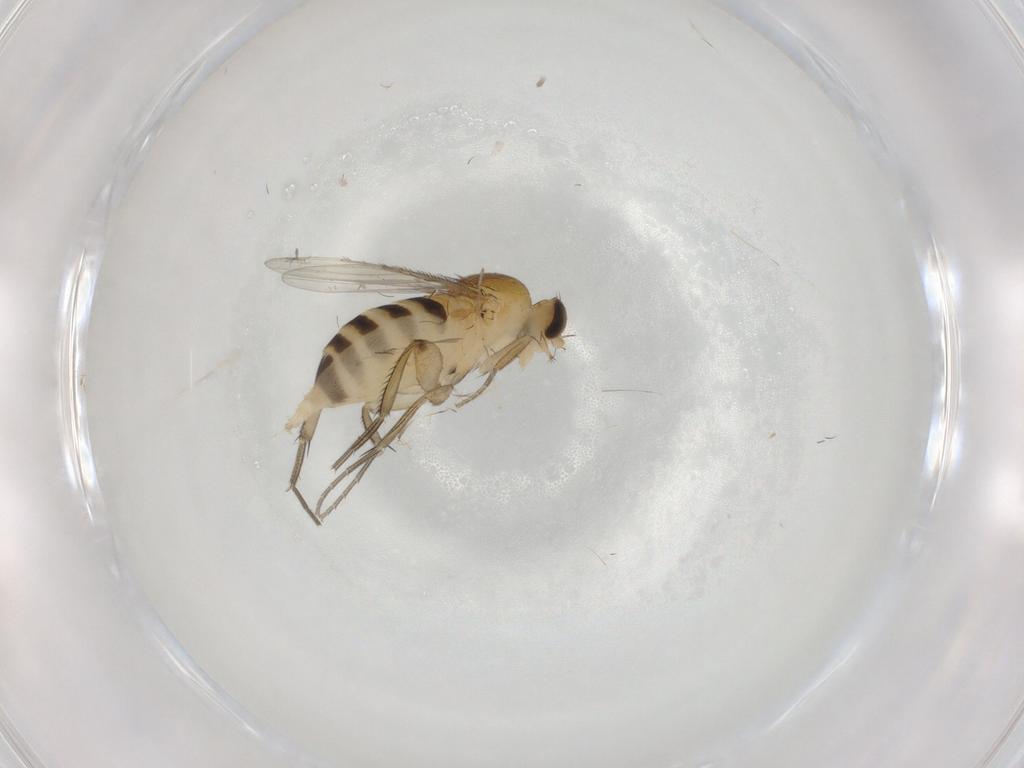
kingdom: Animalia
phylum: Arthropoda
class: Insecta
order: Diptera
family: Cecidomyiidae
